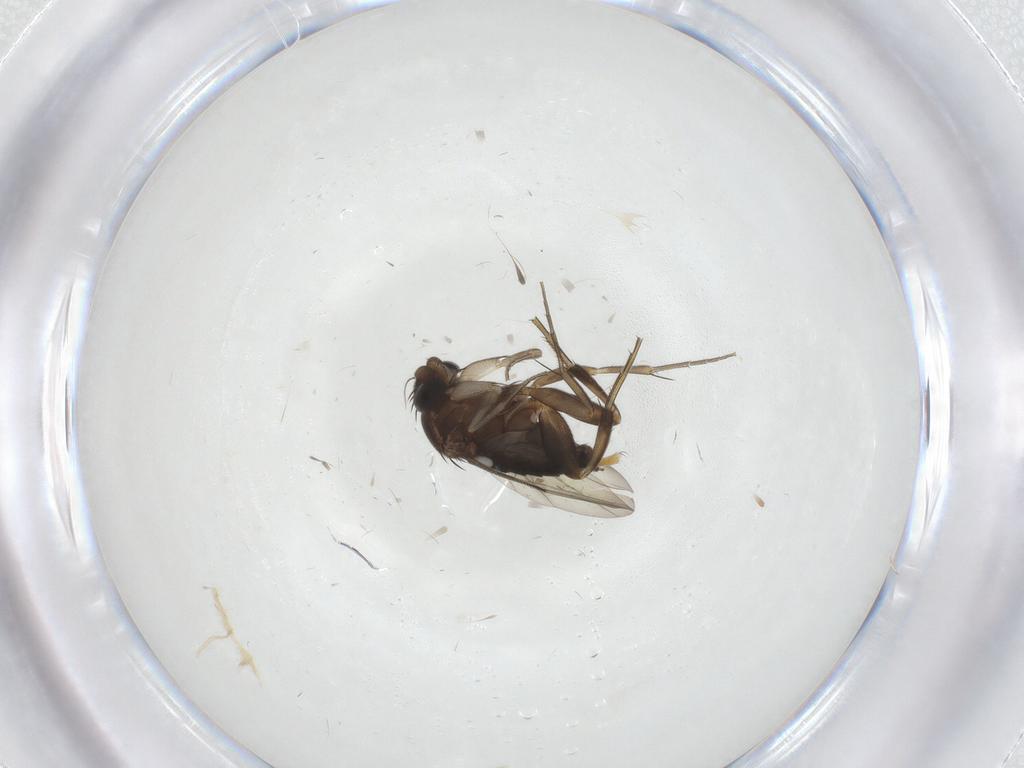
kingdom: Animalia
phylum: Arthropoda
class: Insecta
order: Diptera
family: Phoridae
